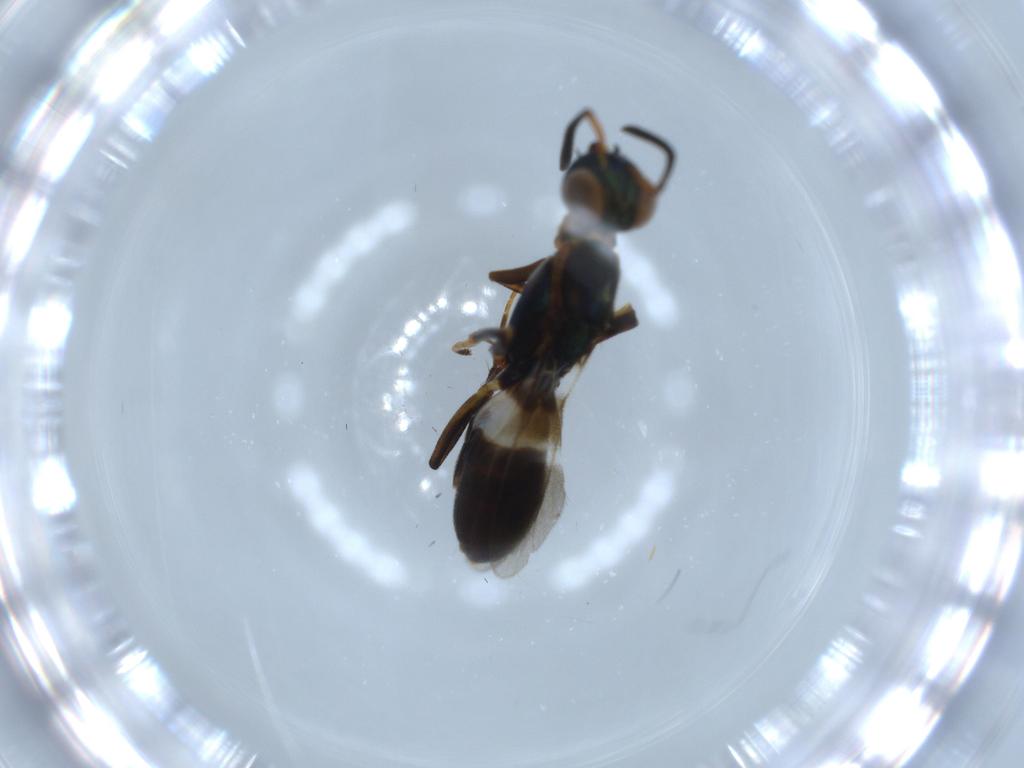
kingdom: Animalia
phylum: Arthropoda
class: Insecta
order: Hymenoptera
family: Eupelmidae
